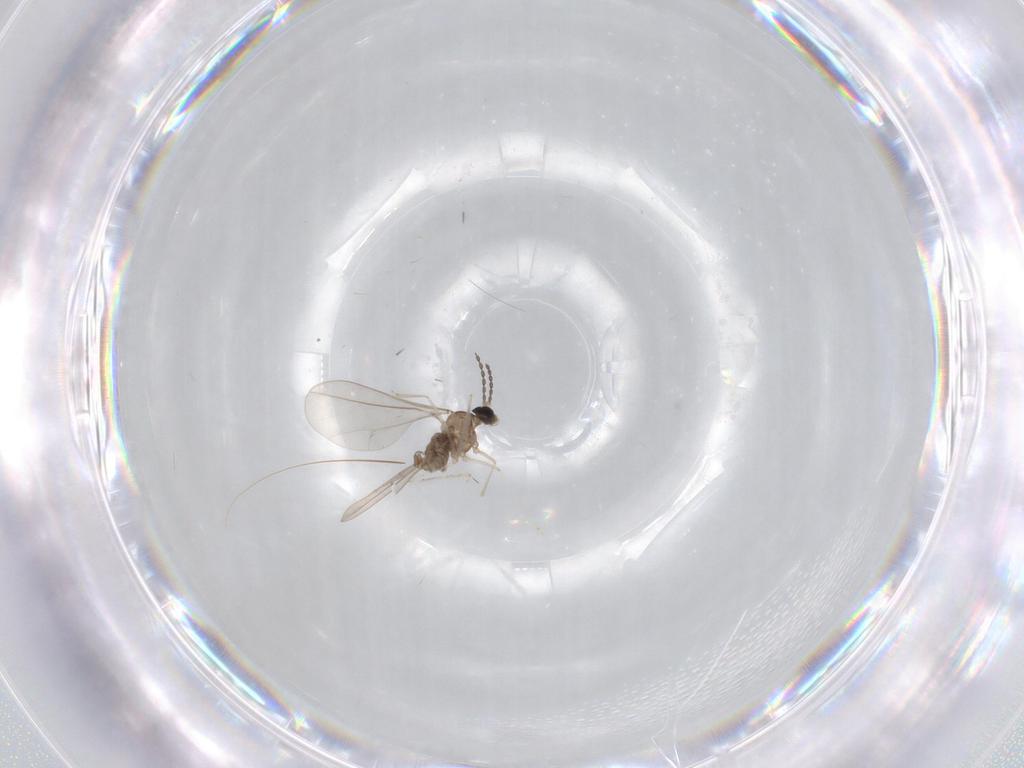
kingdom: Animalia
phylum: Arthropoda
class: Insecta
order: Diptera
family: Cecidomyiidae
